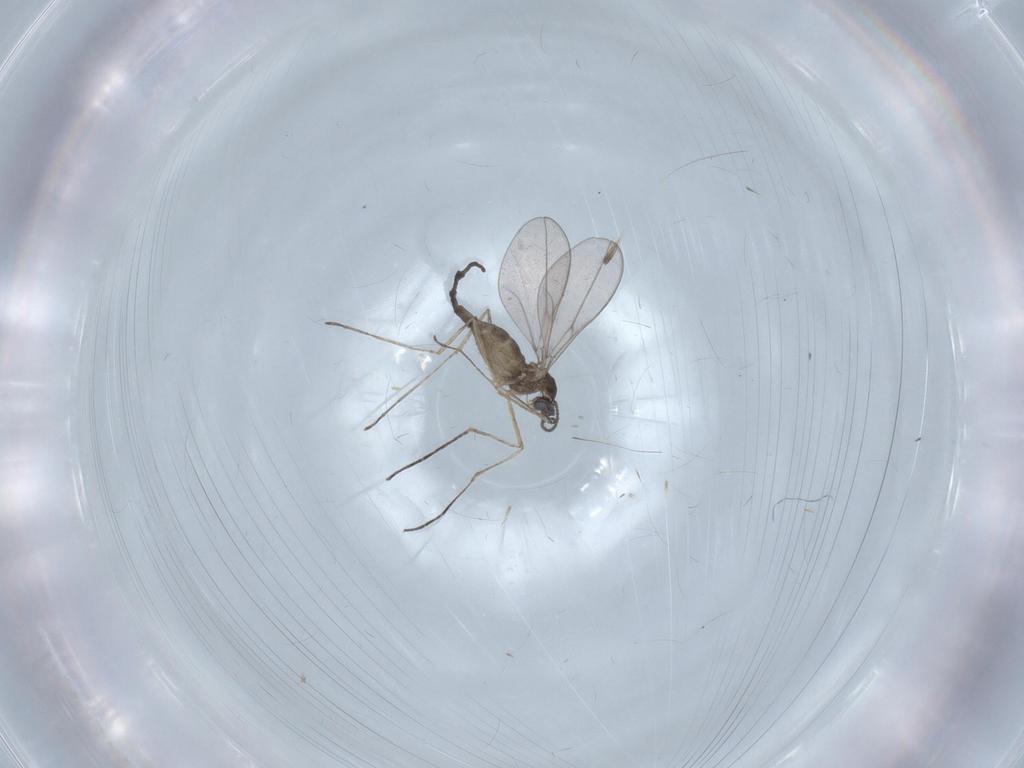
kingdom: Animalia
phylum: Arthropoda
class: Insecta
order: Diptera
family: Cecidomyiidae
